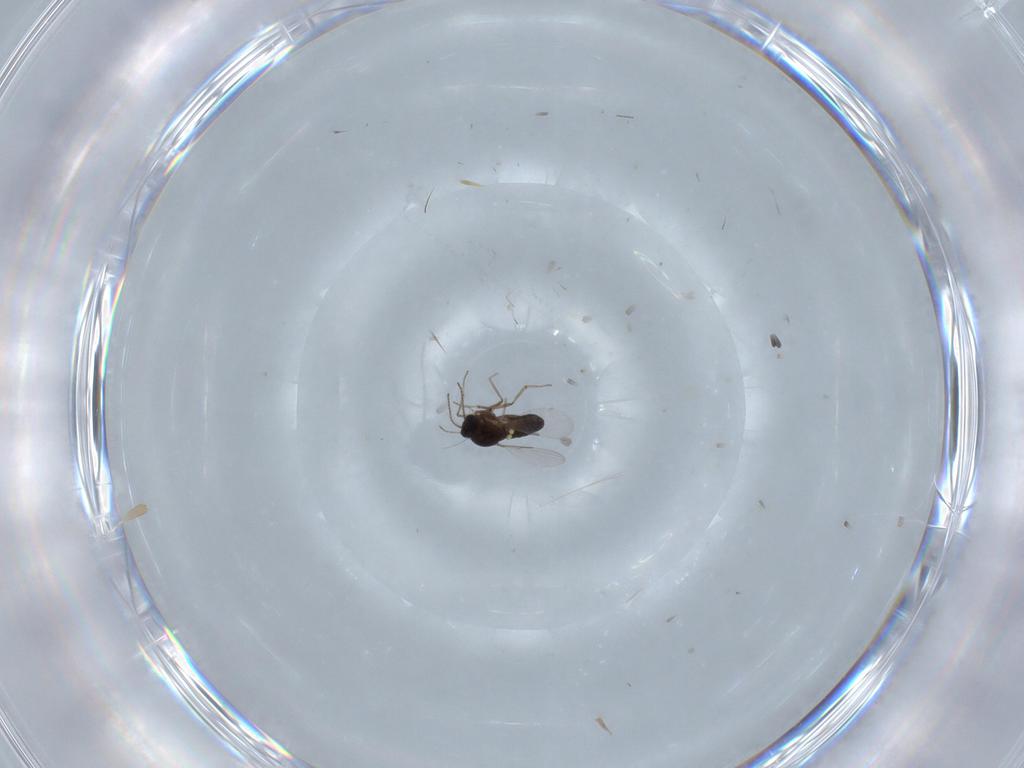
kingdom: Animalia
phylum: Arthropoda
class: Insecta
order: Diptera
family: Ceratopogonidae
